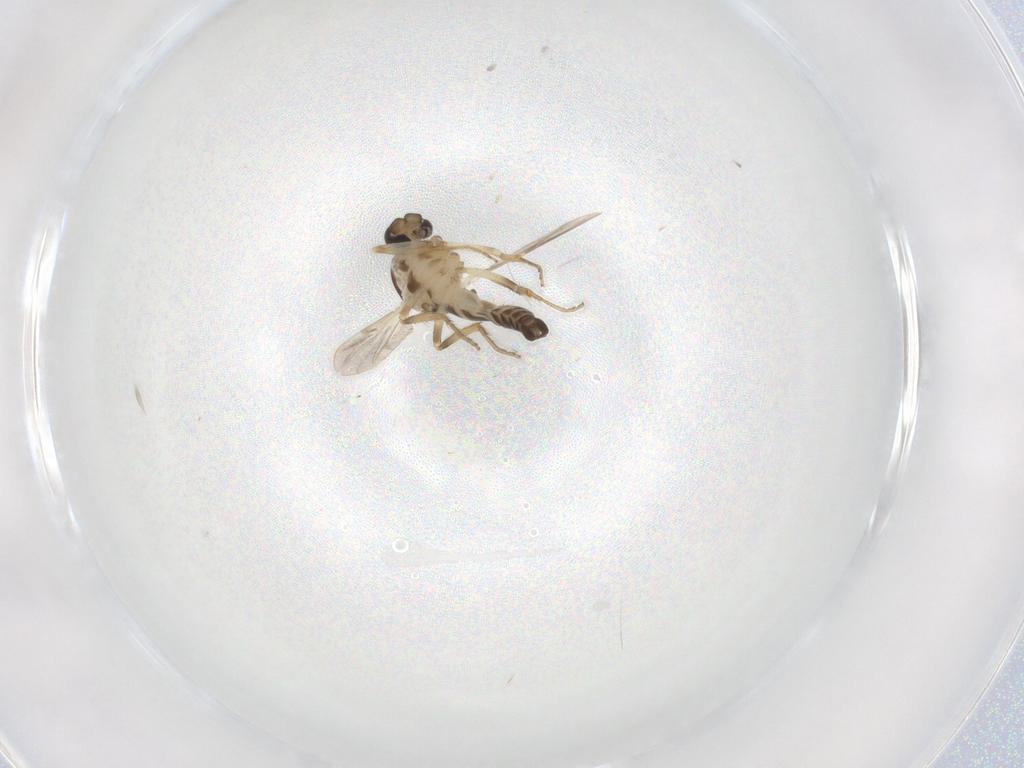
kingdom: Animalia
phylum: Arthropoda
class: Insecta
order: Diptera
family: Ceratopogonidae
